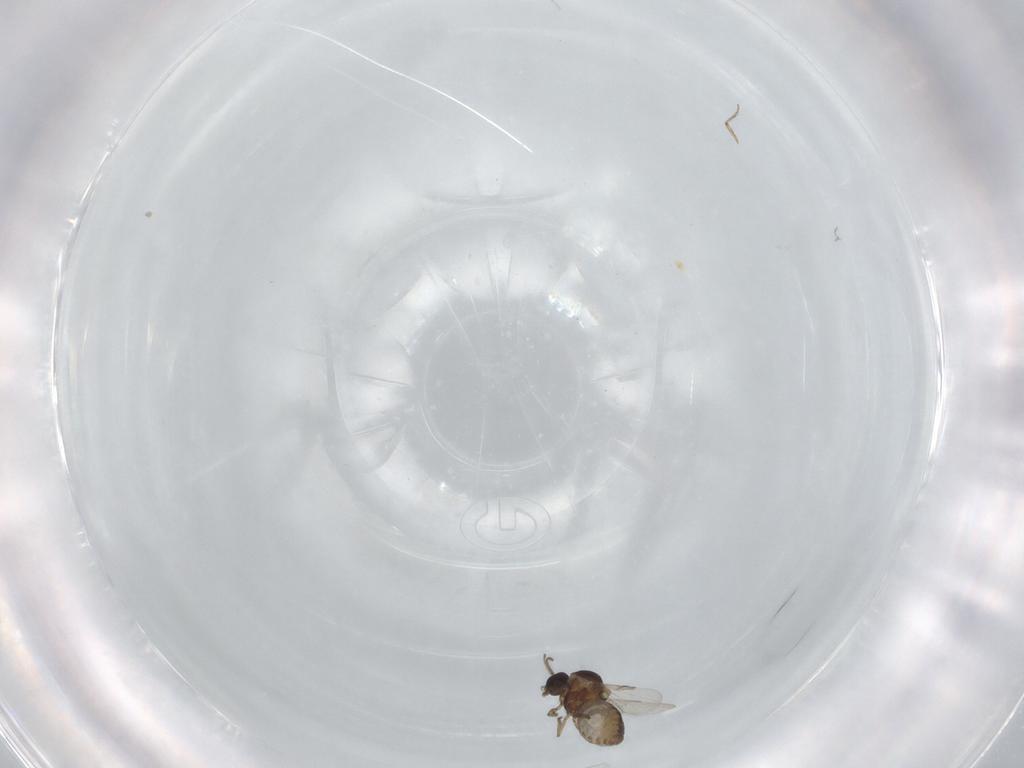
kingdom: Animalia
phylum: Arthropoda
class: Insecta
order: Diptera
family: Ceratopogonidae
